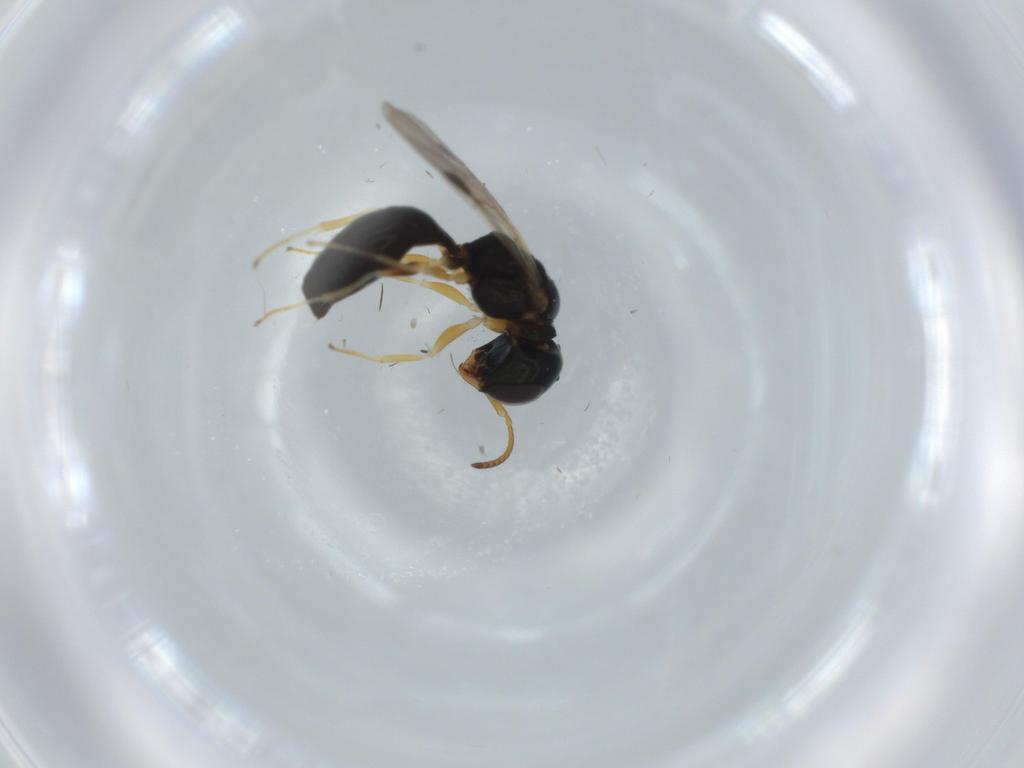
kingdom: Animalia
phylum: Arthropoda
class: Insecta
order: Hymenoptera
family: Pemphredonidae
